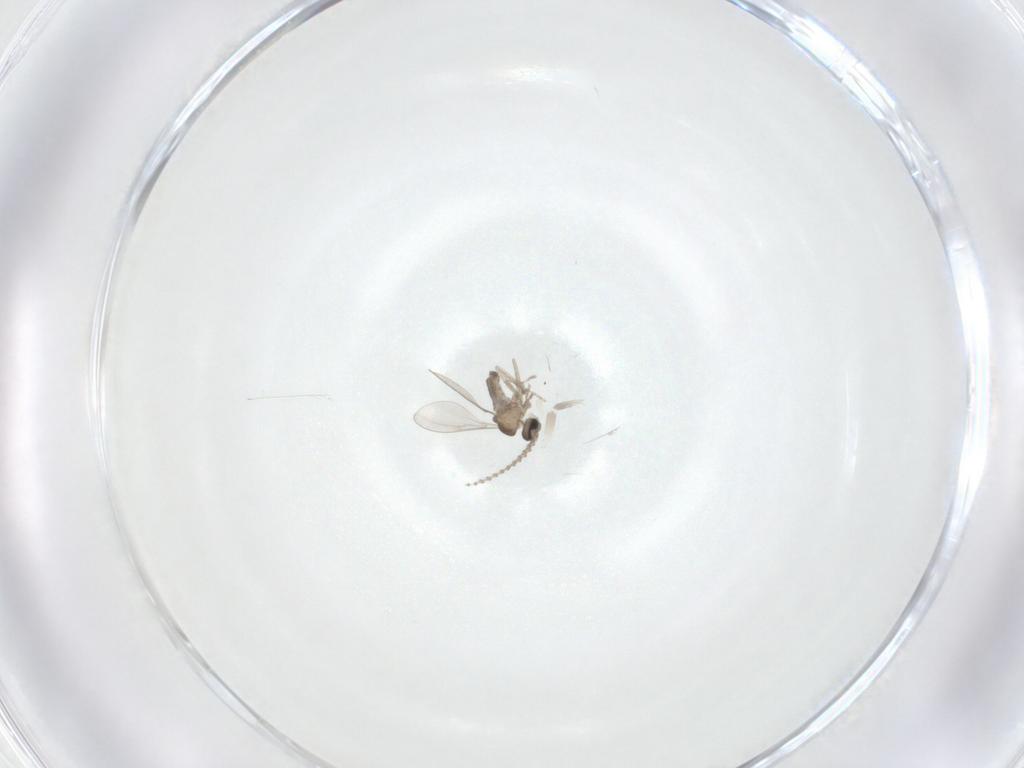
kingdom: Animalia
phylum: Arthropoda
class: Insecta
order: Diptera
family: Cecidomyiidae
